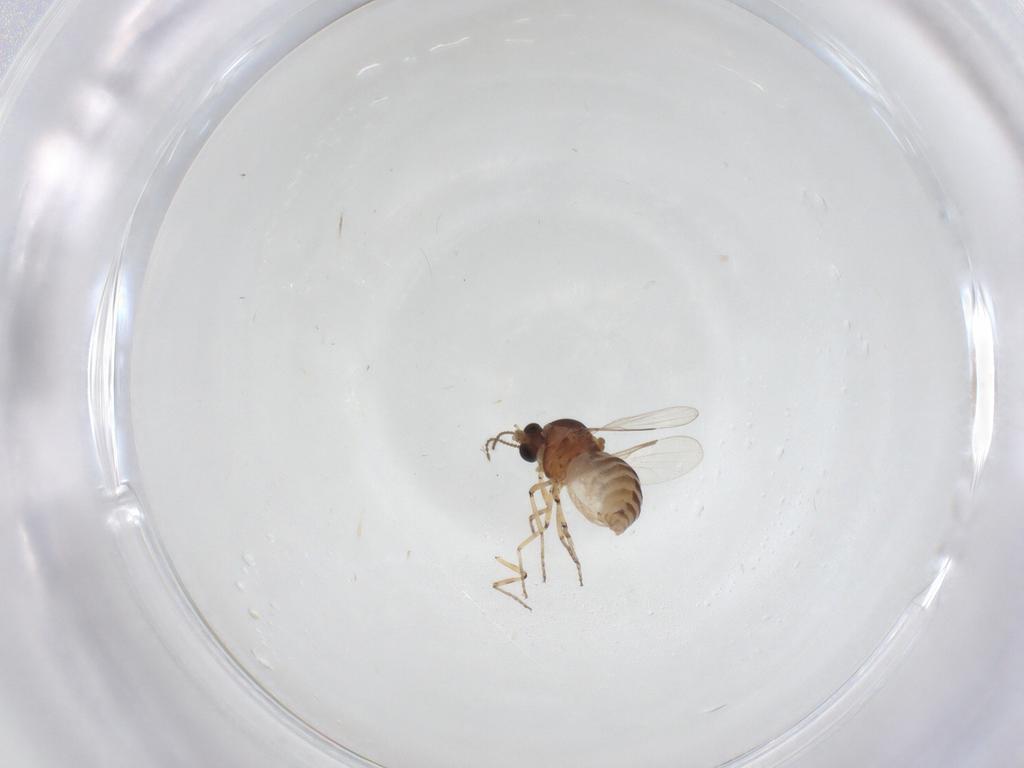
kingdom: Animalia
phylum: Arthropoda
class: Insecta
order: Diptera
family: Ceratopogonidae
